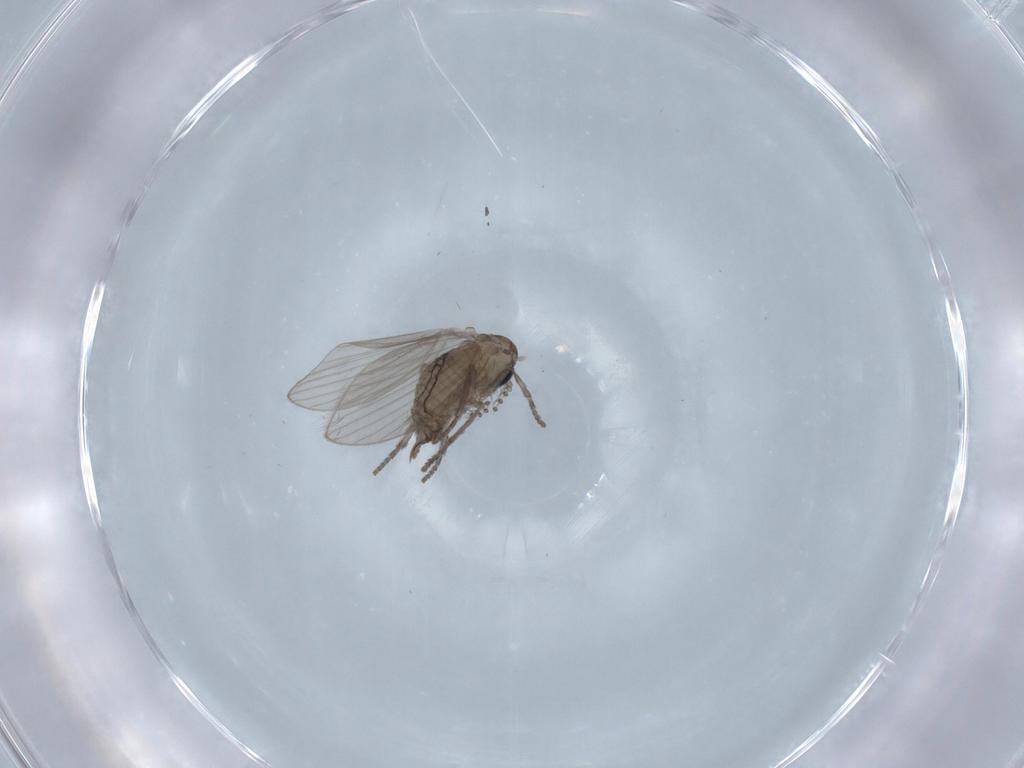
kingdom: Animalia
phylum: Arthropoda
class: Insecta
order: Diptera
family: Psychodidae
